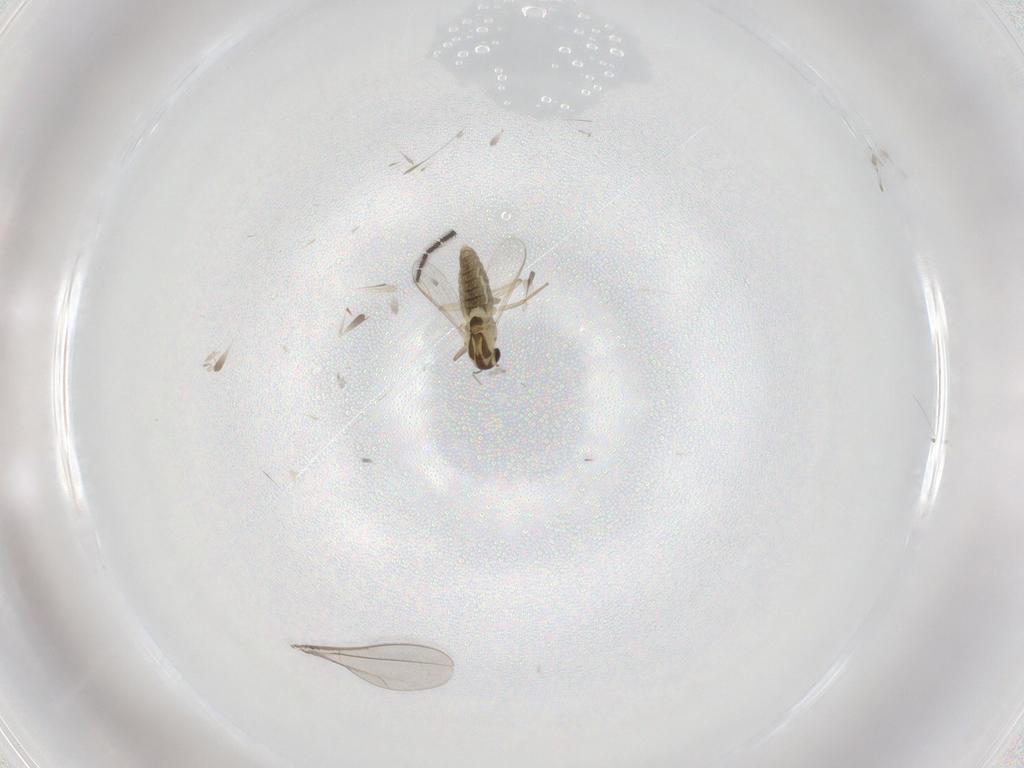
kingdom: Animalia
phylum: Arthropoda
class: Insecta
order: Diptera
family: Chironomidae
